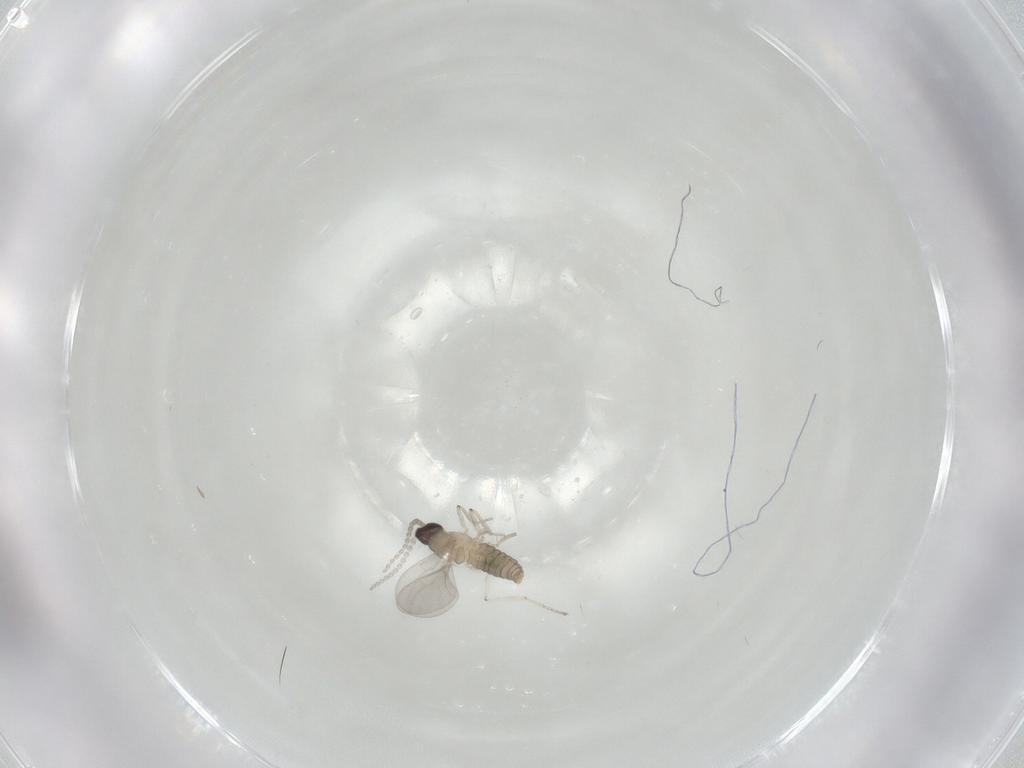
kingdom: Animalia
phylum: Arthropoda
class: Insecta
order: Diptera
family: Cecidomyiidae
